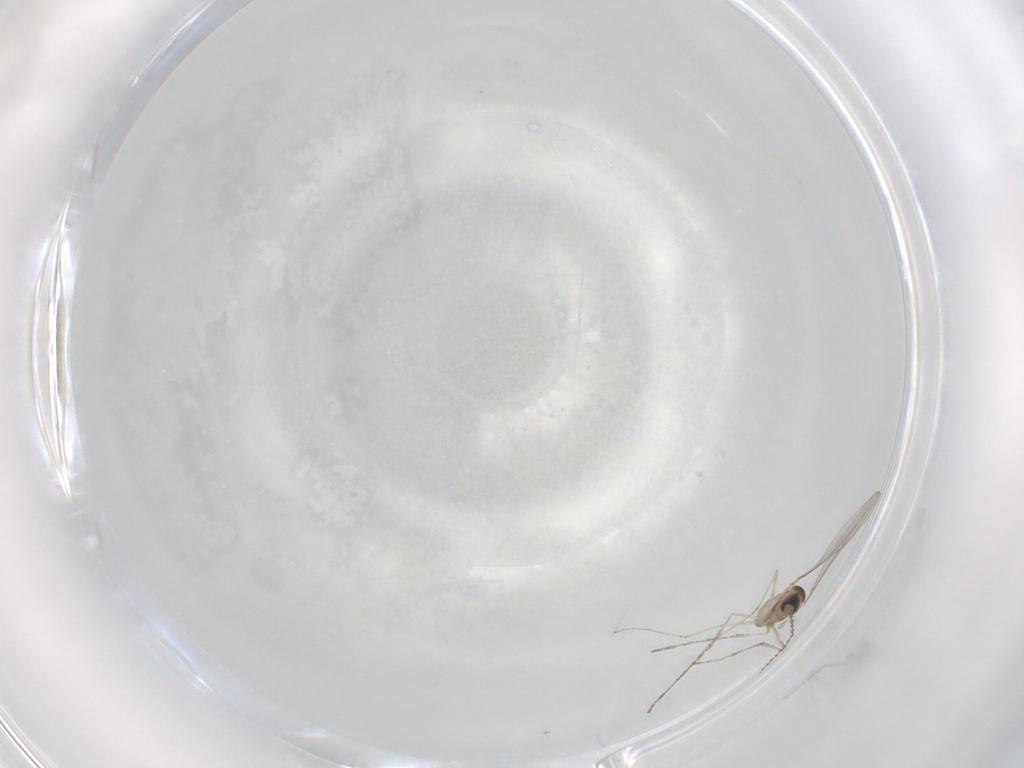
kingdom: Animalia
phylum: Arthropoda
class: Insecta
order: Diptera
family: Cecidomyiidae
